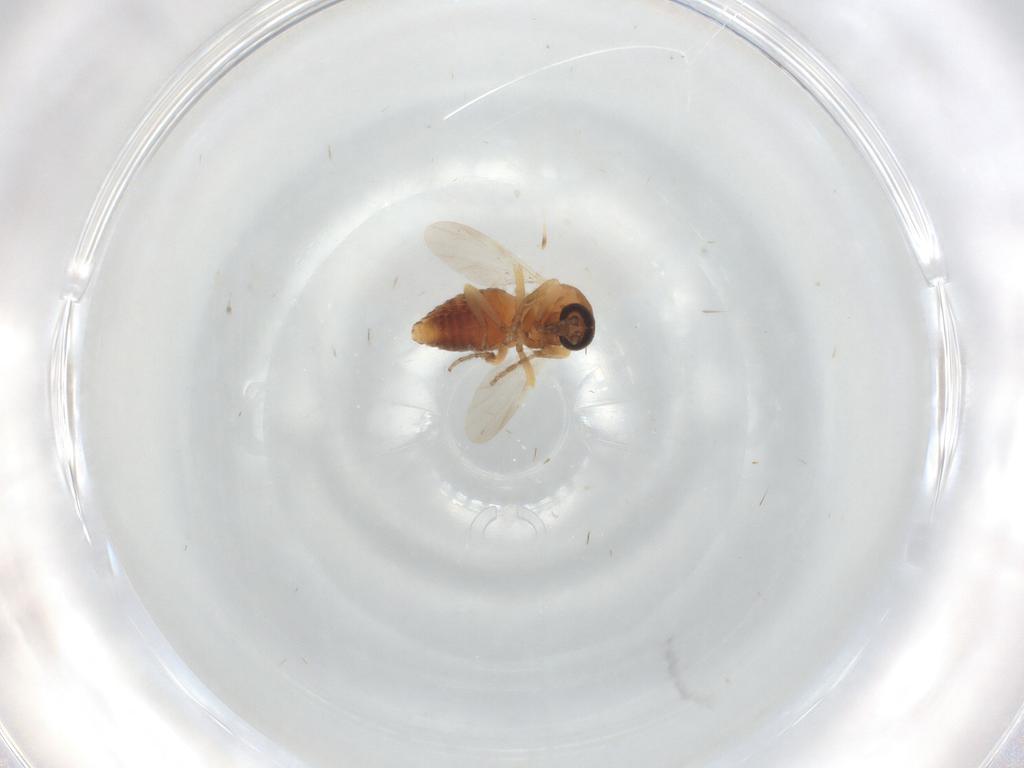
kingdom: Animalia
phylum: Arthropoda
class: Insecta
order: Diptera
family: Ceratopogonidae
